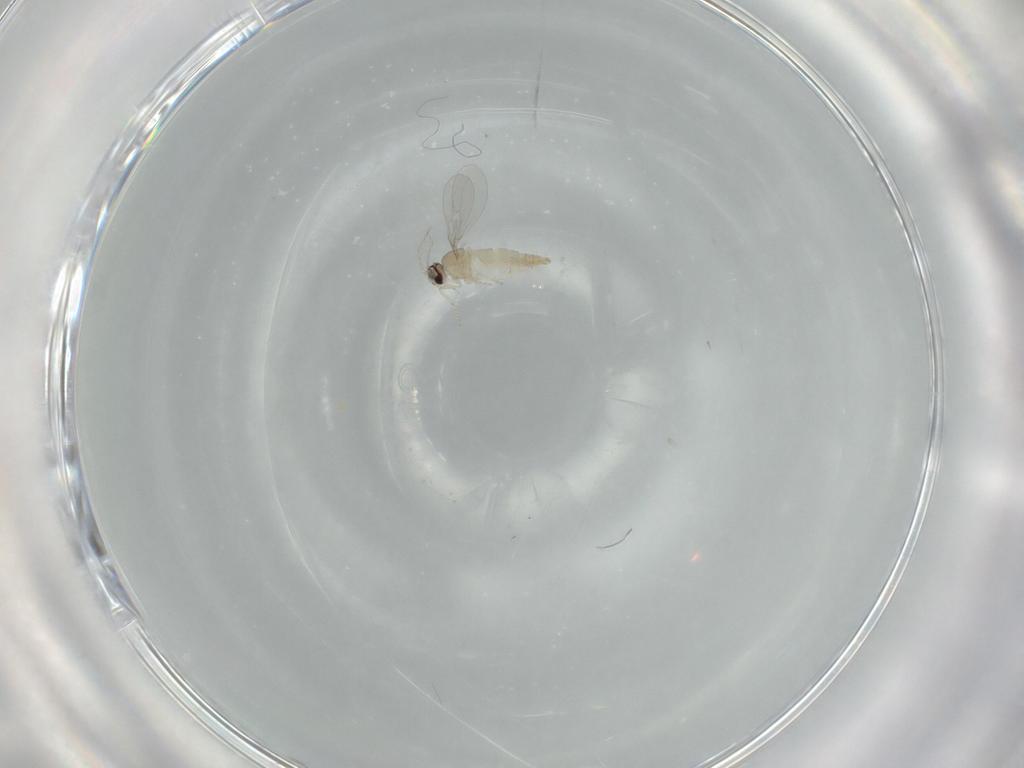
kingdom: Animalia
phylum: Arthropoda
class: Insecta
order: Diptera
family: Cecidomyiidae
